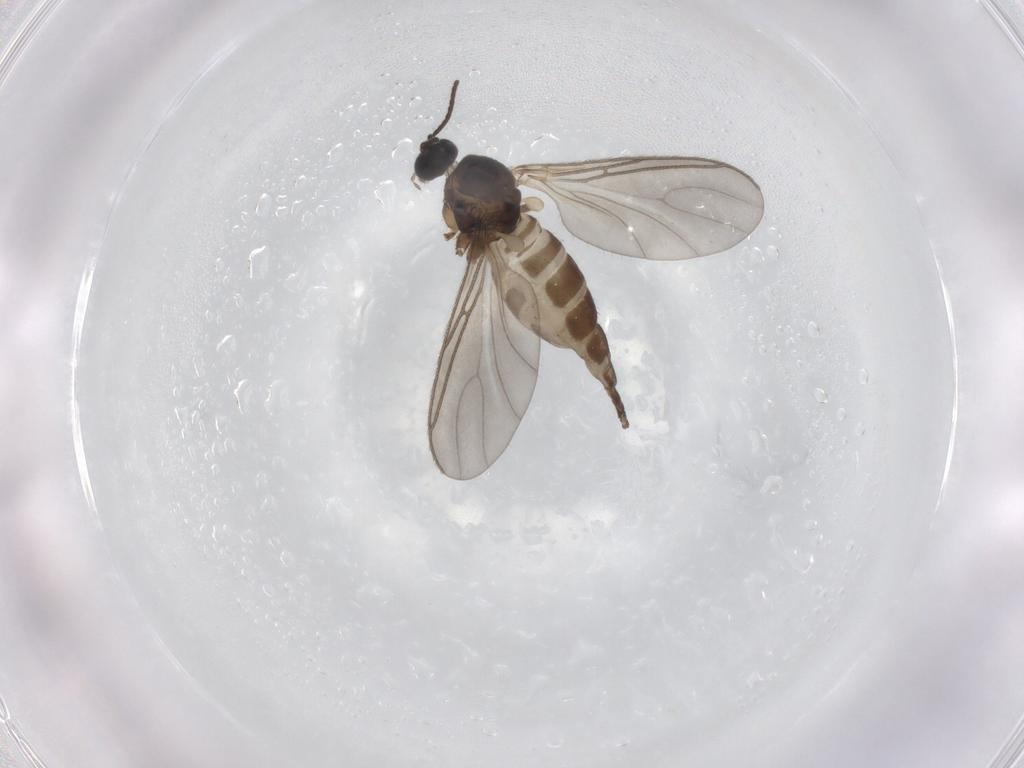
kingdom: Animalia
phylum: Arthropoda
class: Insecta
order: Diptera
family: Sciaridae
